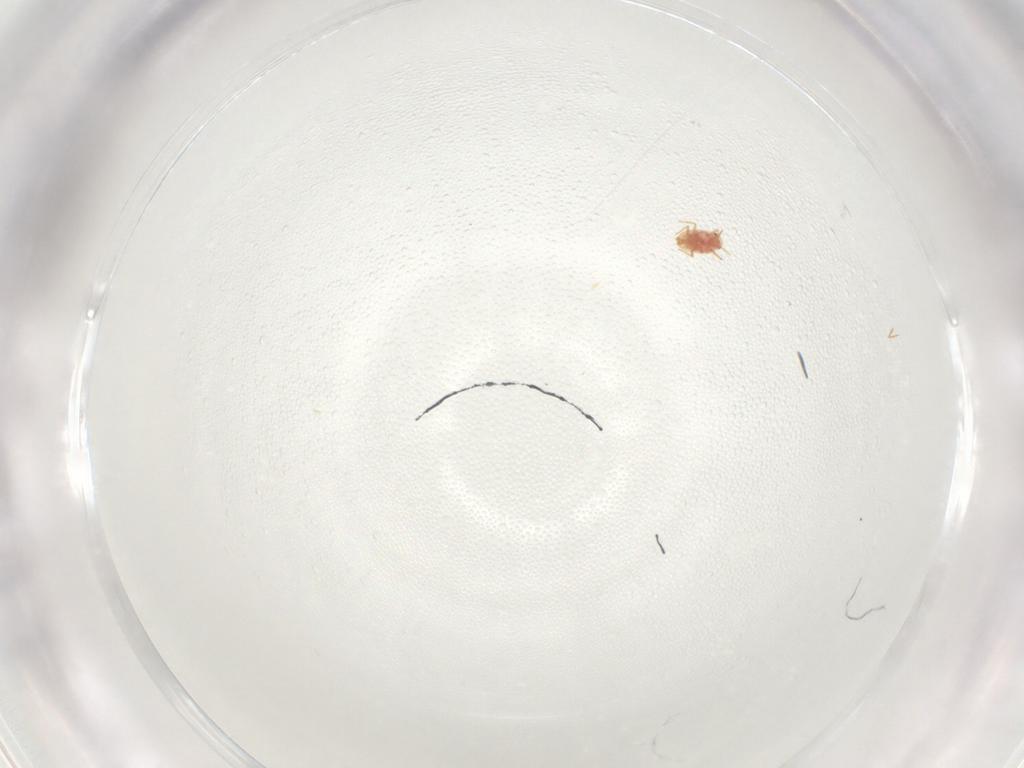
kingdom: Animalia
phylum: Arthropoda
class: Insecta
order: Hemiptera
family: Coccoidea_incertae_sedis
